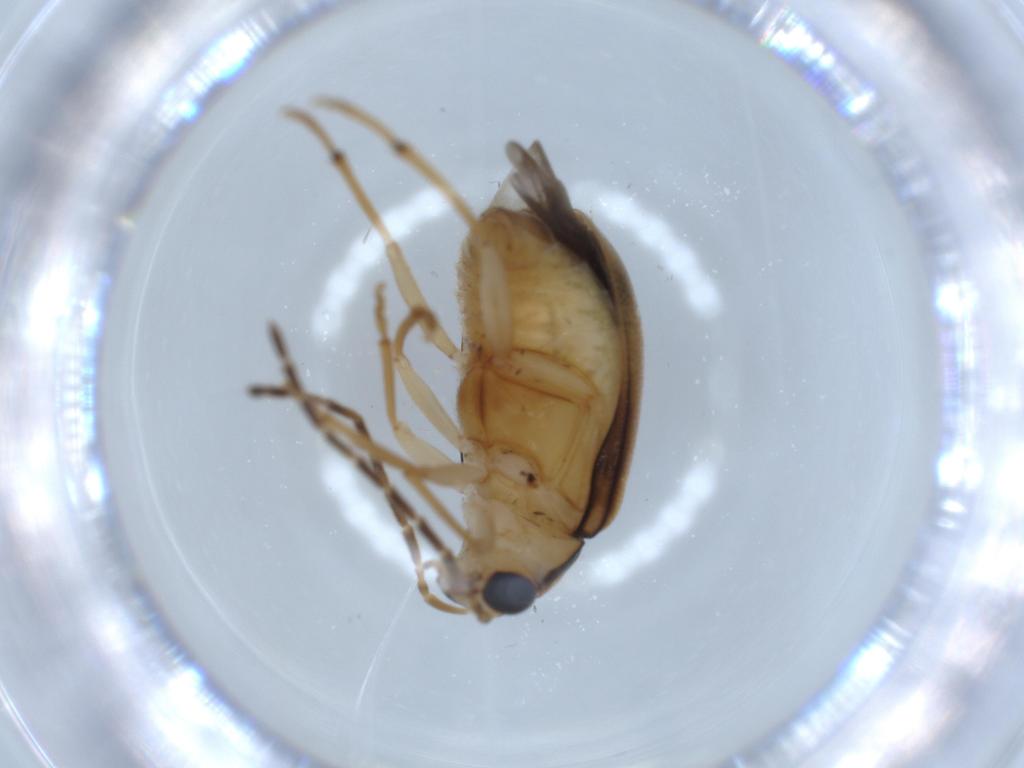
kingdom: Animalia
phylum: Arthropoda
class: Insecta
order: Coleoptera
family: Chrysomelidae
